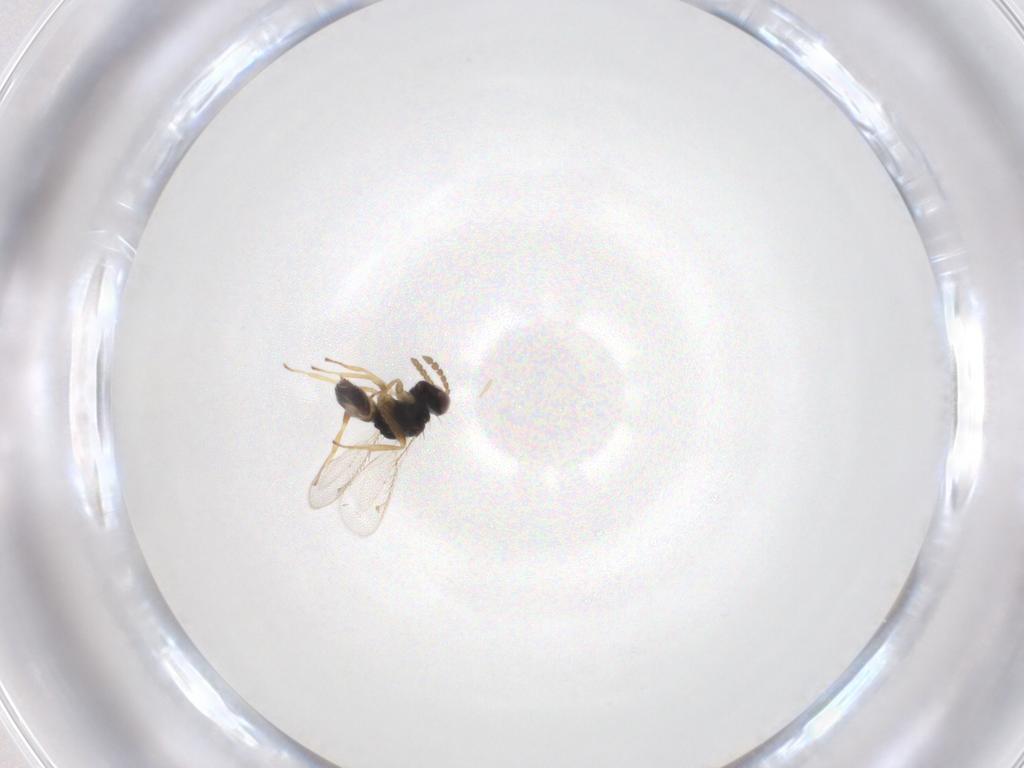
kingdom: Animalia
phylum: Arthropoda
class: Insecta
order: Hymenoptera
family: Eulophidae
